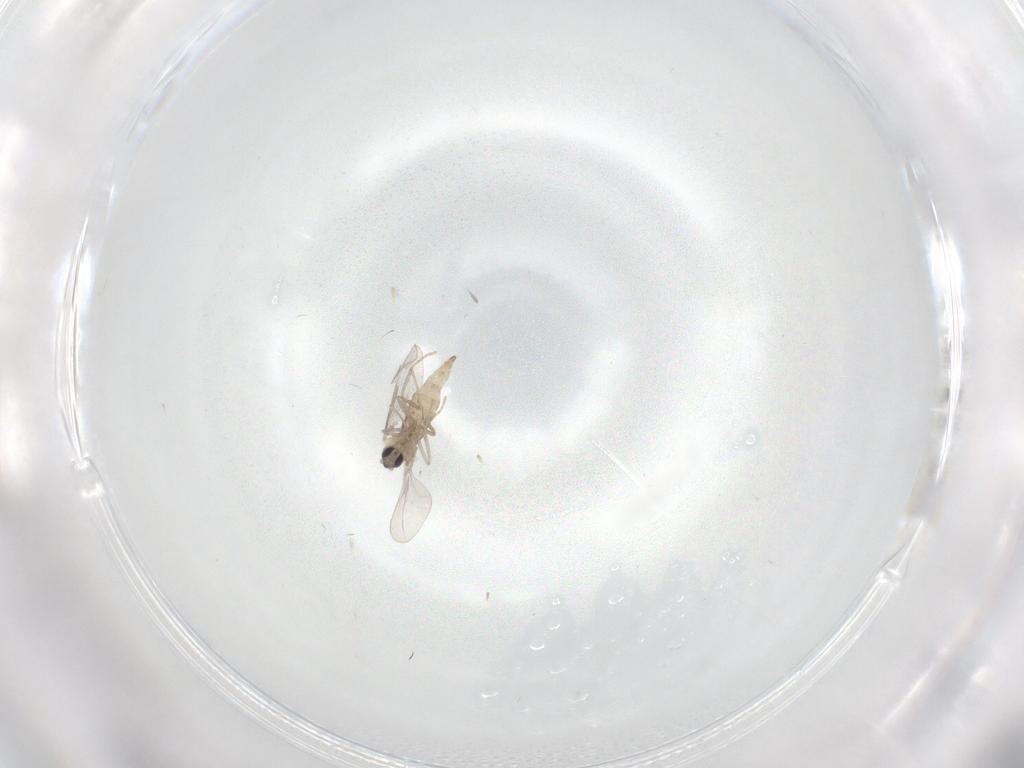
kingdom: Animalia
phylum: Arthropoda
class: Insecta
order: Diptera
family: Cecidomyiidae
